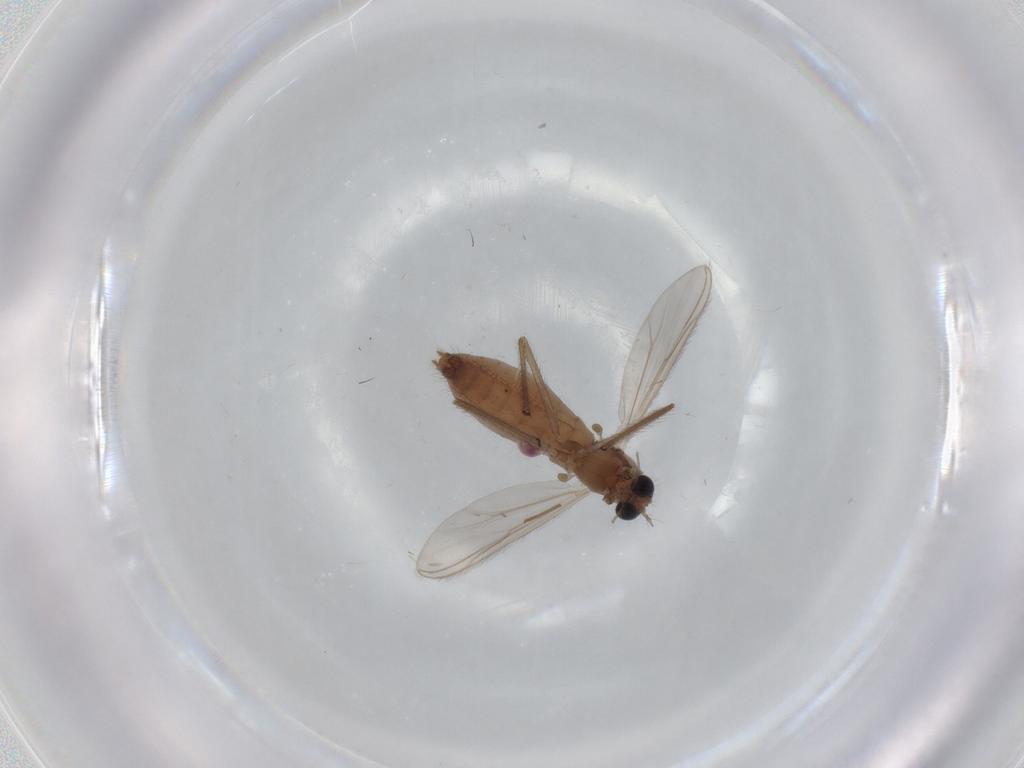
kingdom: Animalia
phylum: Arthropoda
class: Insecta
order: Diptera
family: Chironomidae
